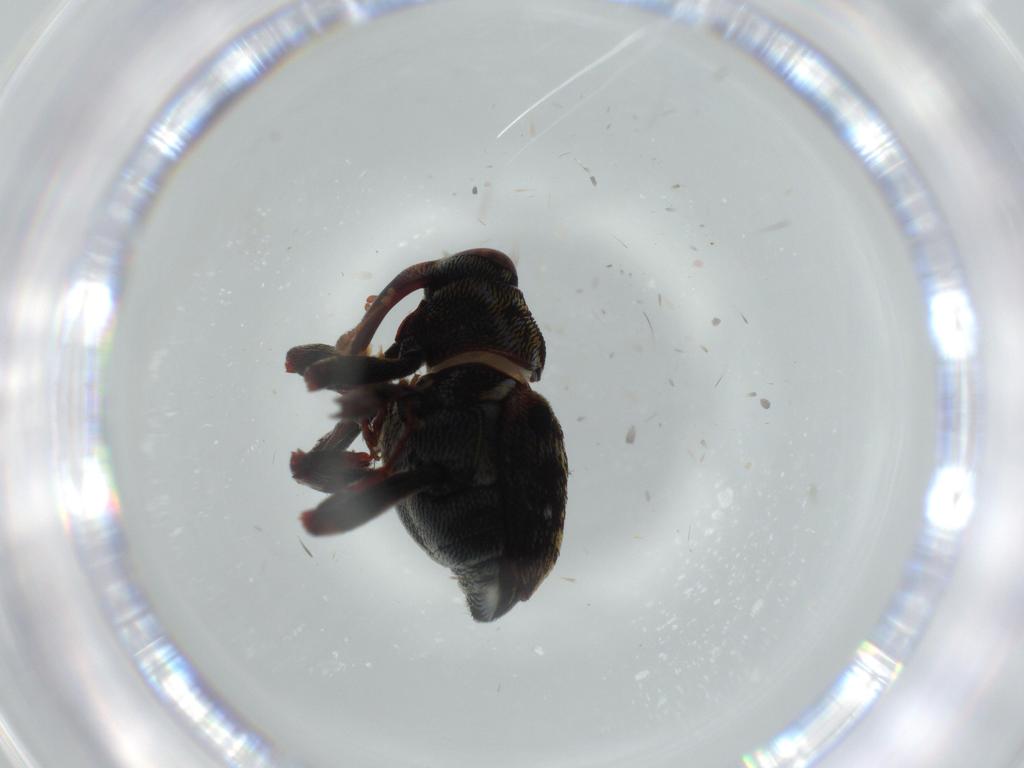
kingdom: Animalia
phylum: Arthropoda
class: Insecta
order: Coleoptera
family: Curculionidae
